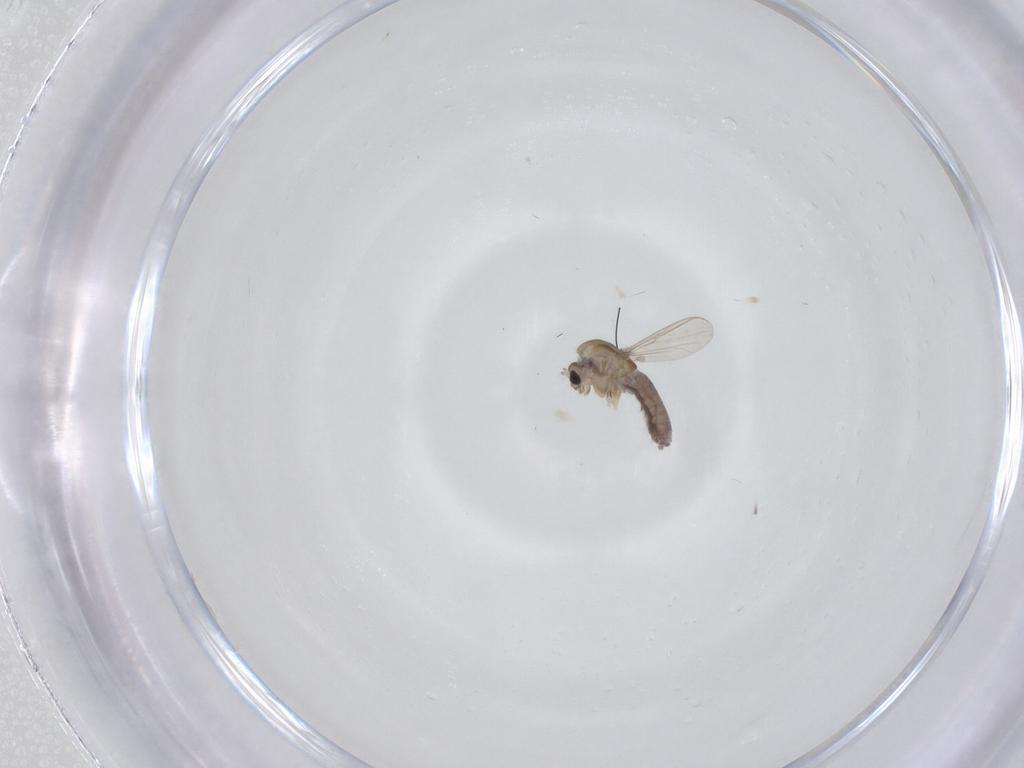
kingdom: Animalia
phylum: Arthropoda
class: Insecta
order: Diptera
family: Chironomidae
